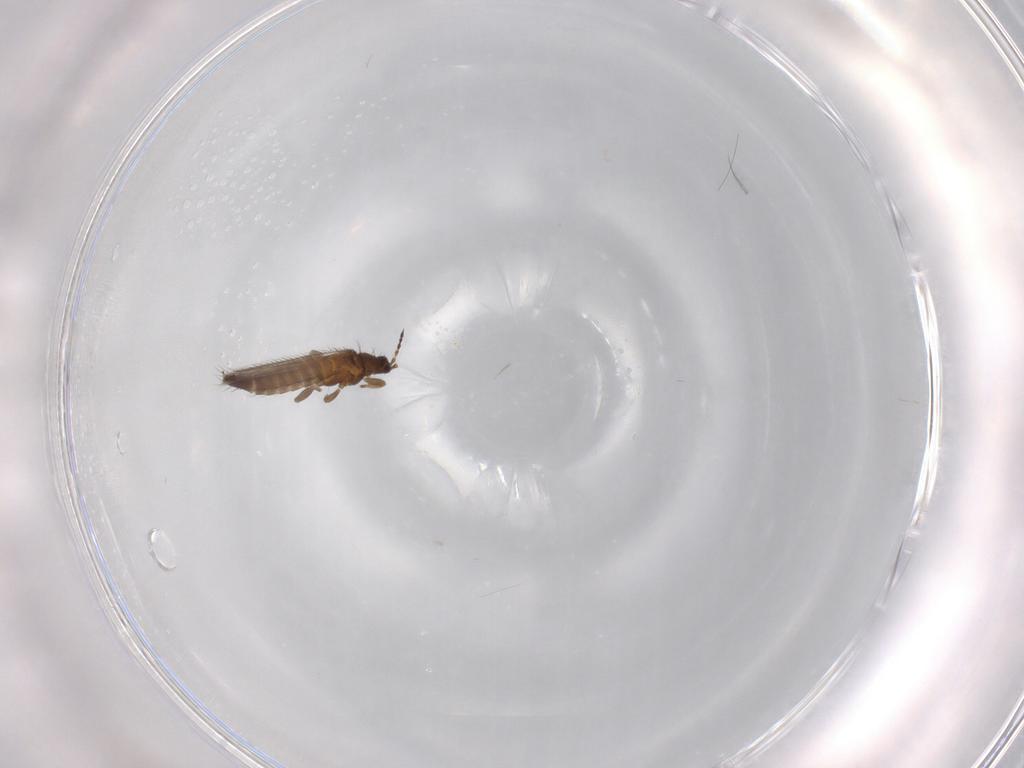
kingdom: Animalia
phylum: Arthropoda
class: Insecta
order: Thysanoptera
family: Thripidae
